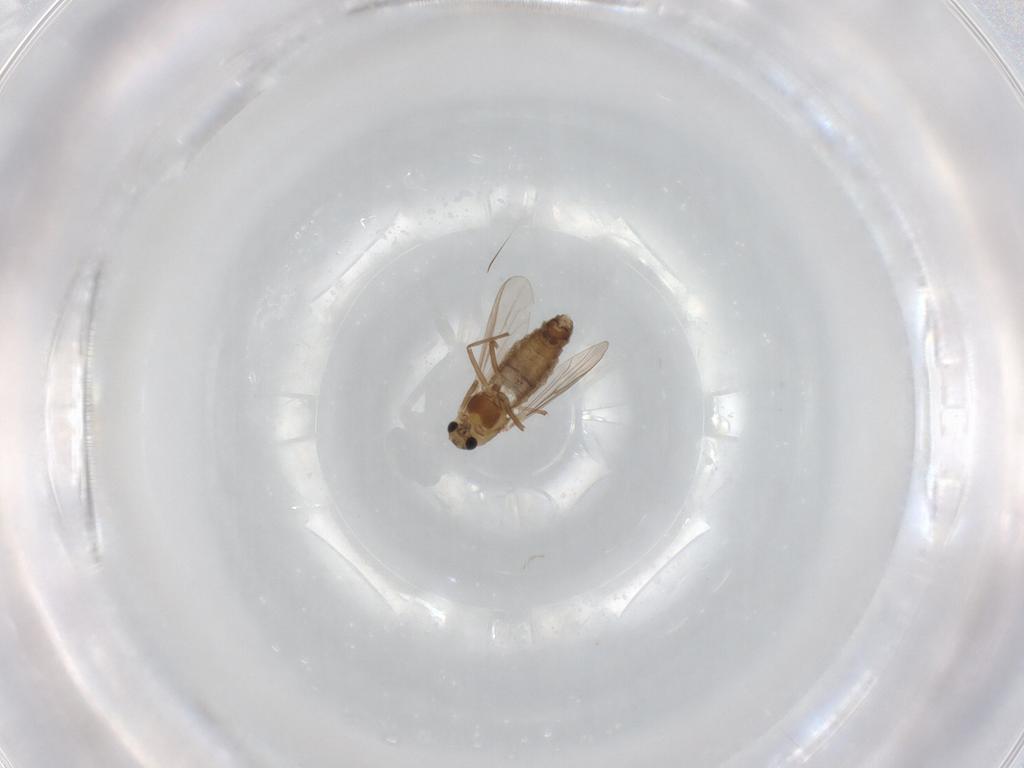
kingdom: Animalia
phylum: Arthropoda
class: Insecta
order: Diptera
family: Chironomidae
